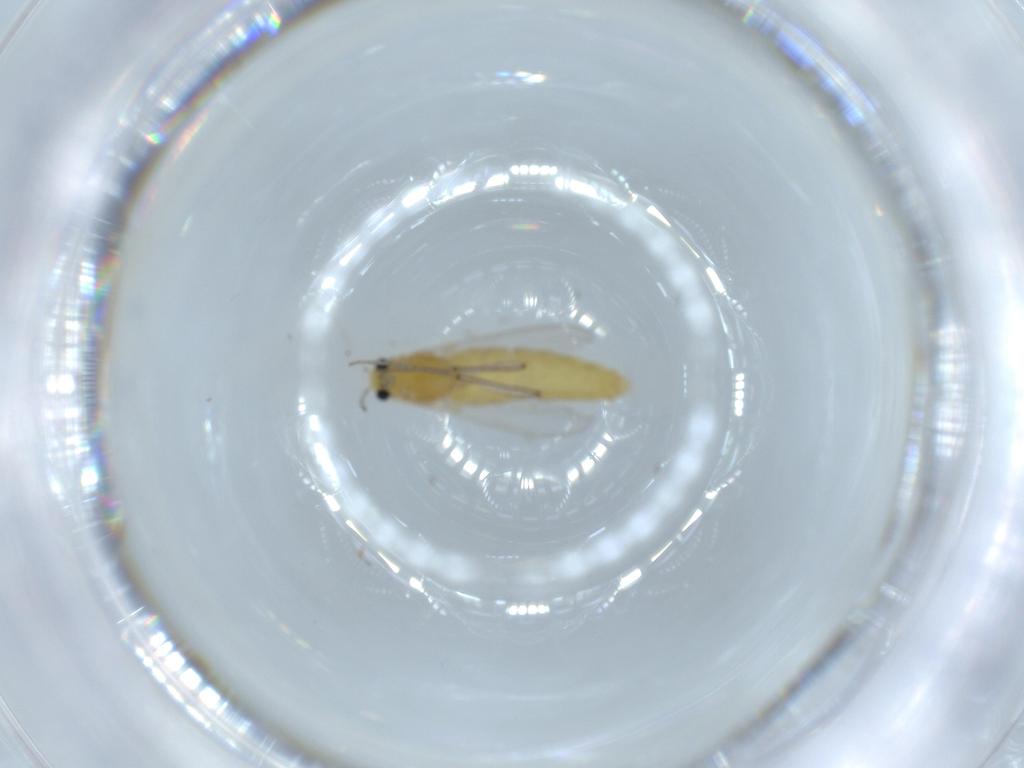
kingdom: Animalia
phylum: Arthropoda
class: Insecta
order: Diptera
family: Chironomidae
